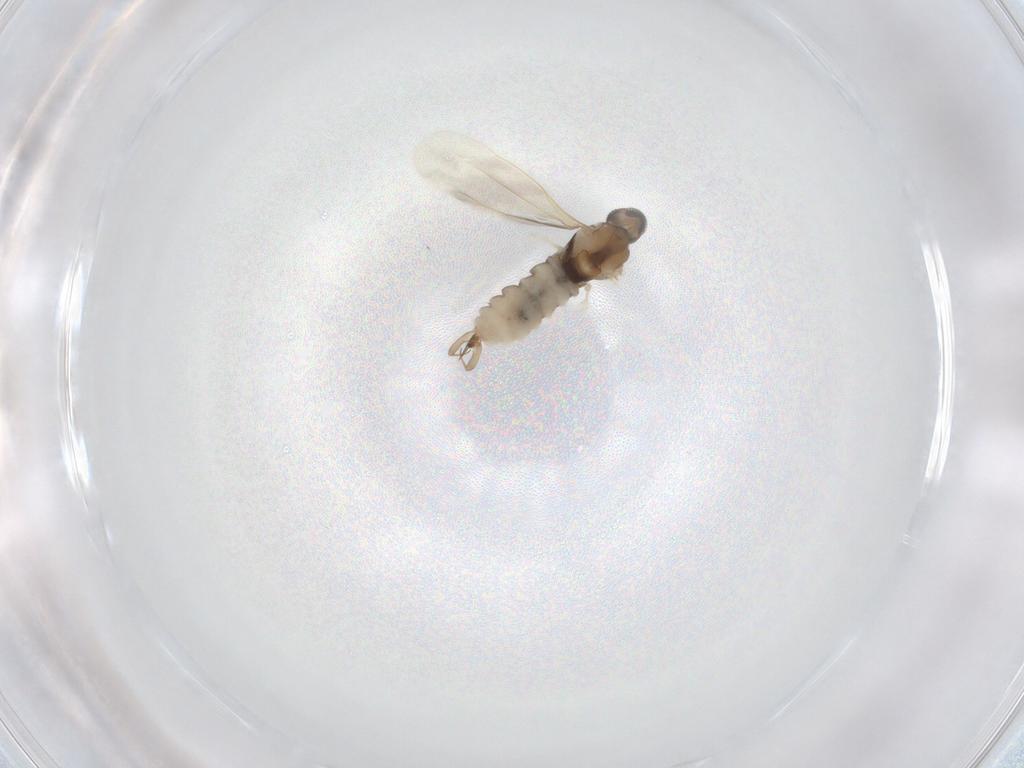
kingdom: Animalia
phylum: Arthropoda
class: Insecta
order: Diptera
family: Cecidomyiidae
